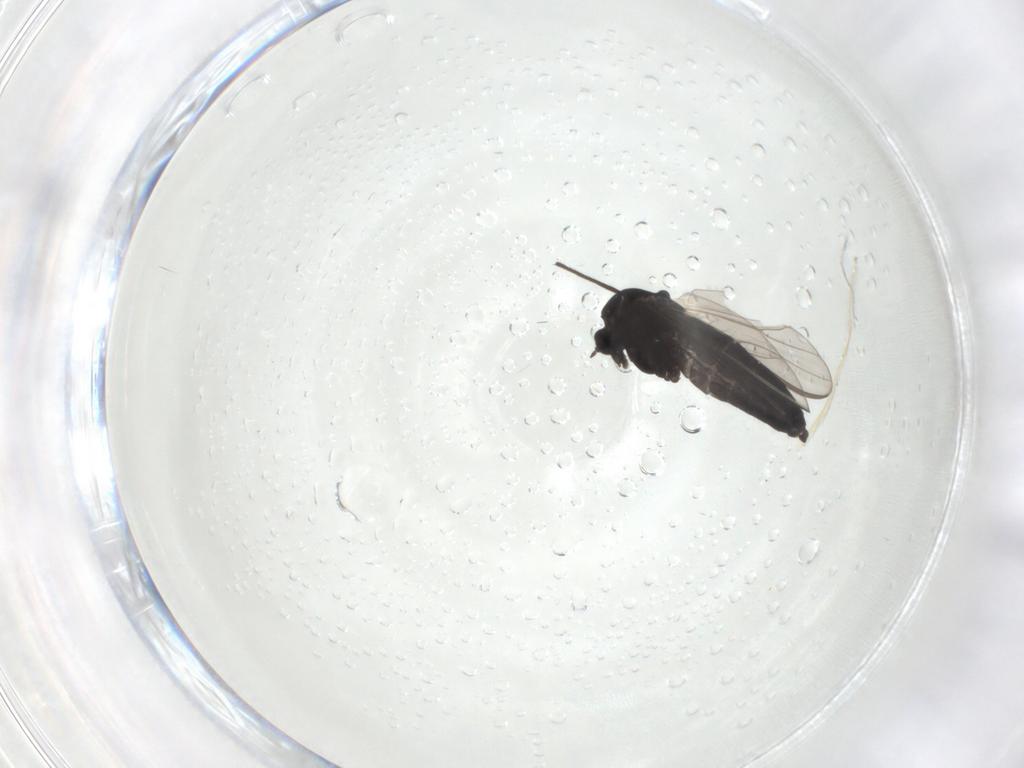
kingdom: Animalia
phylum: Arthropoda
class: Insecta
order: Diptera
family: Chironomidae
